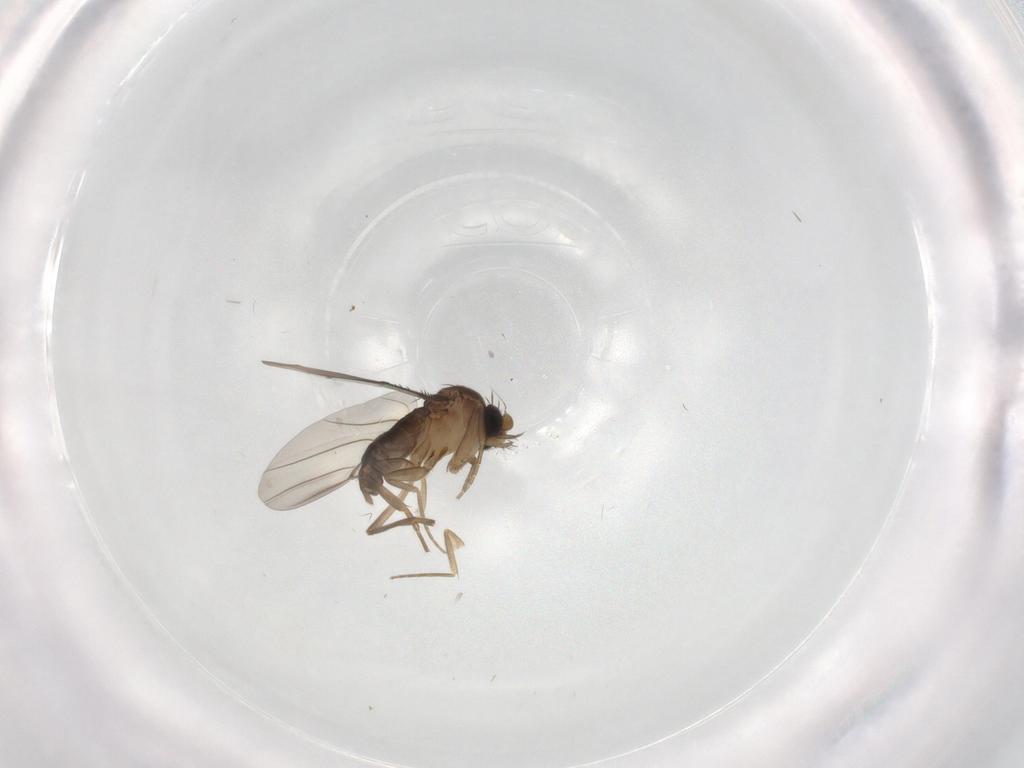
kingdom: Animalia
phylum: Arthropoda
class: Insecta
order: Diptera
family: Phoridae
